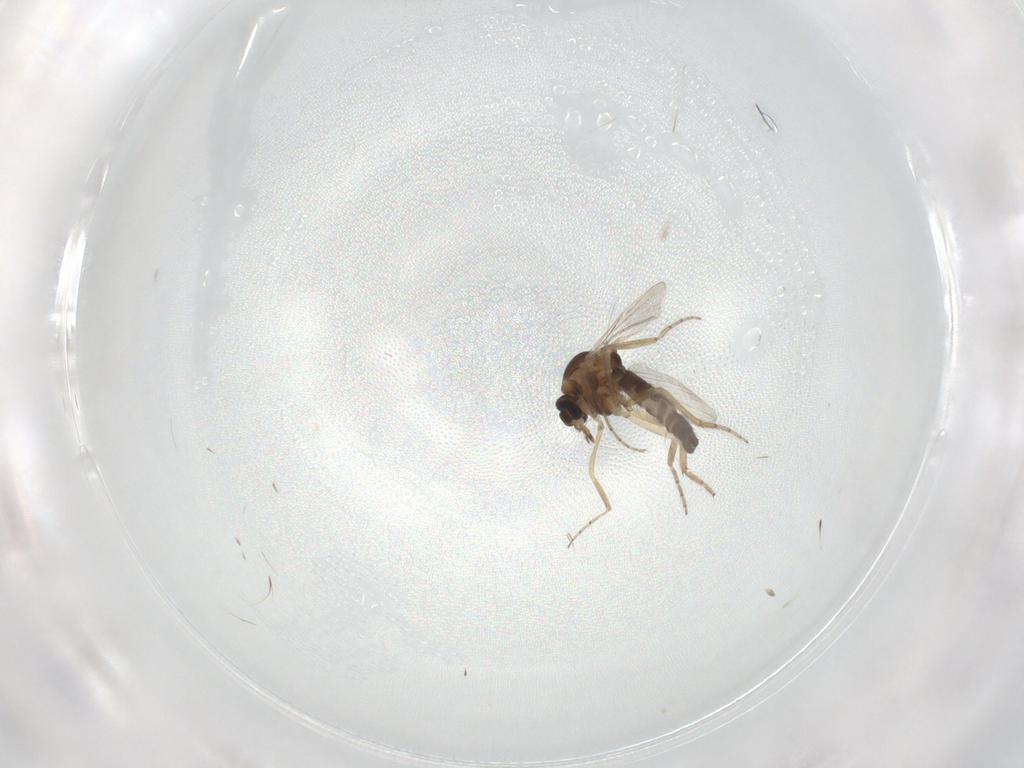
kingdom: Animalia
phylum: Arthropoda
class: Insecta
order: Diptera
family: Ceratopogonidae
